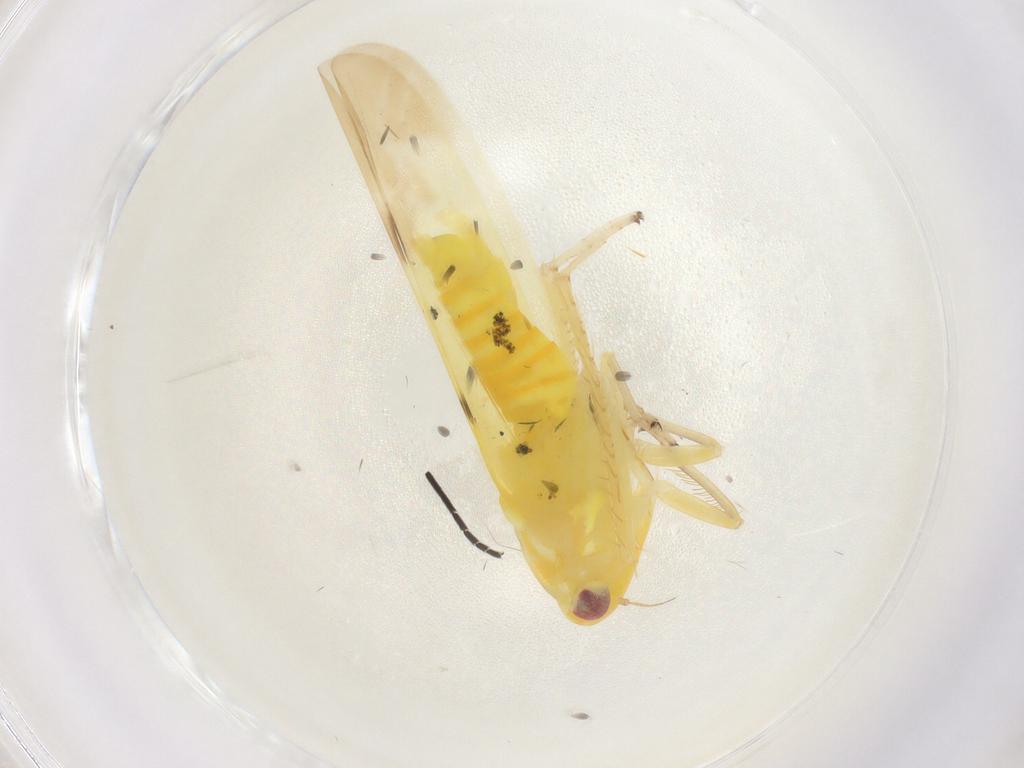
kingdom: Animalia
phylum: Arthropoda
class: Insecta
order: Hemiptera
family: Cicadellidae
